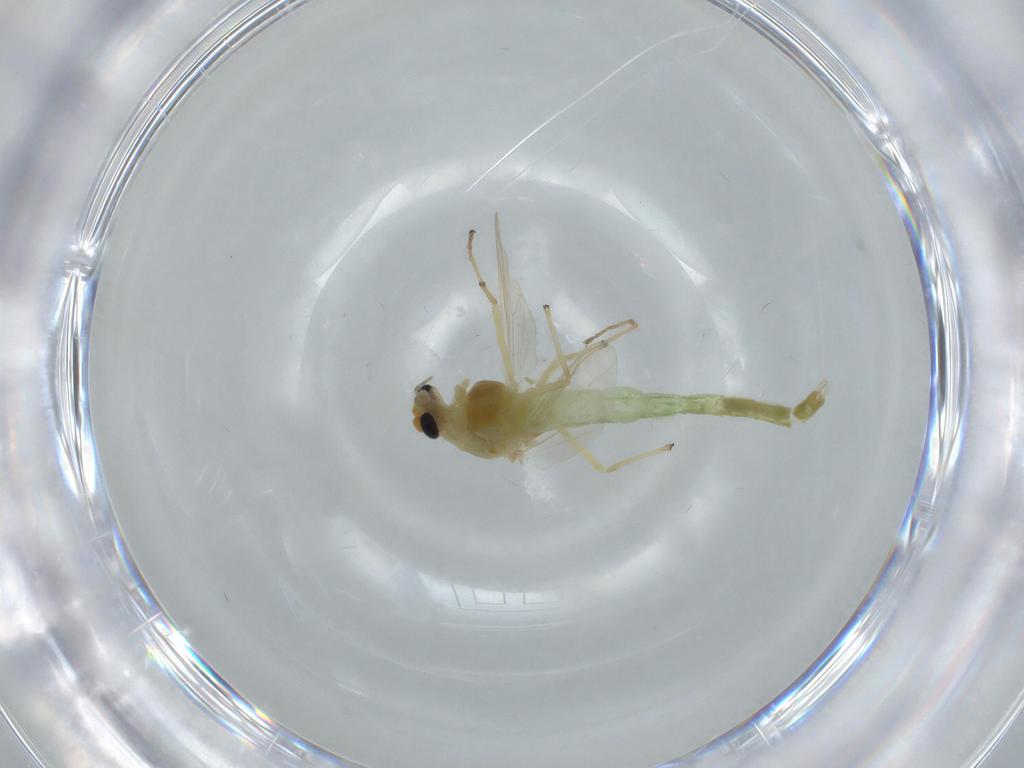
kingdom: Animalia
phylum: Arthropoda
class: Insecta
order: Diptera
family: Chironomidae
